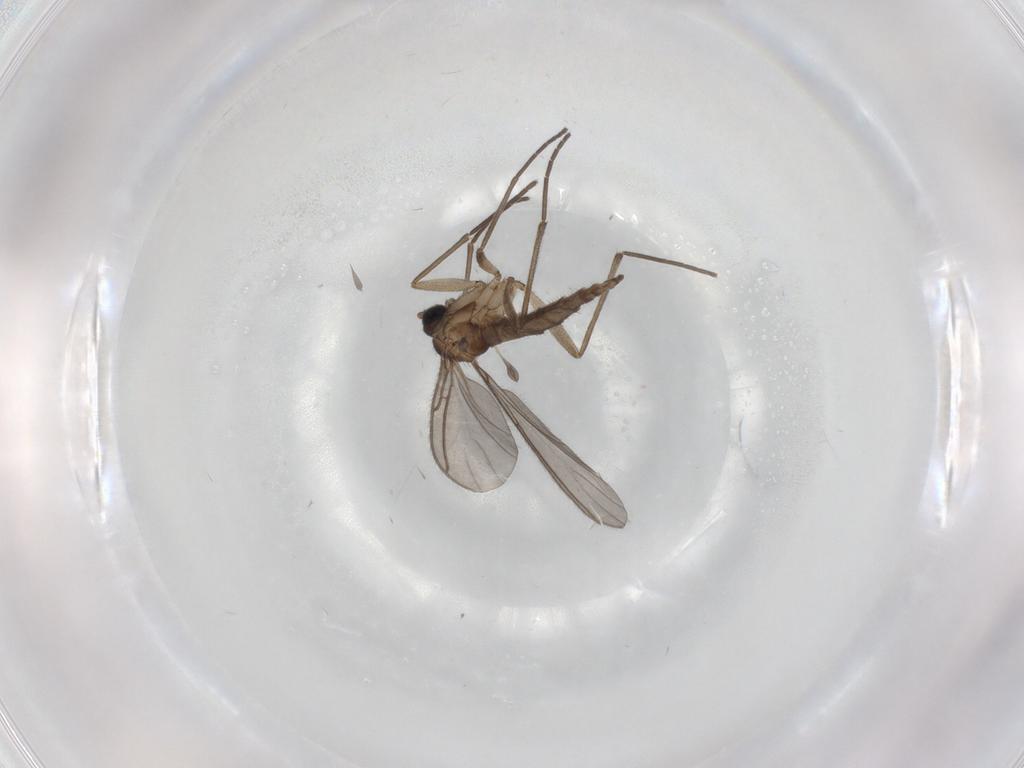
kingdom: Animalia
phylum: Arthropoda
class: Insecta
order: Diptera
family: Sciaridae
